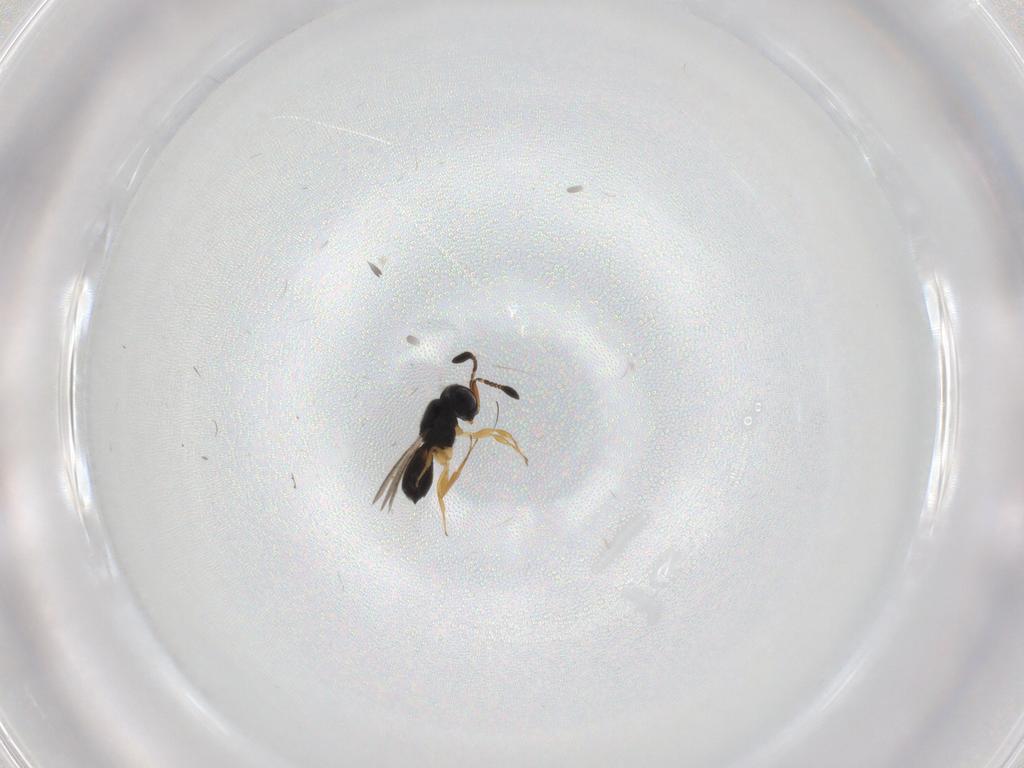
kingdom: Animalia
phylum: Arthropoda
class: Insecta
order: Hymenoptera
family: Scelionidae
